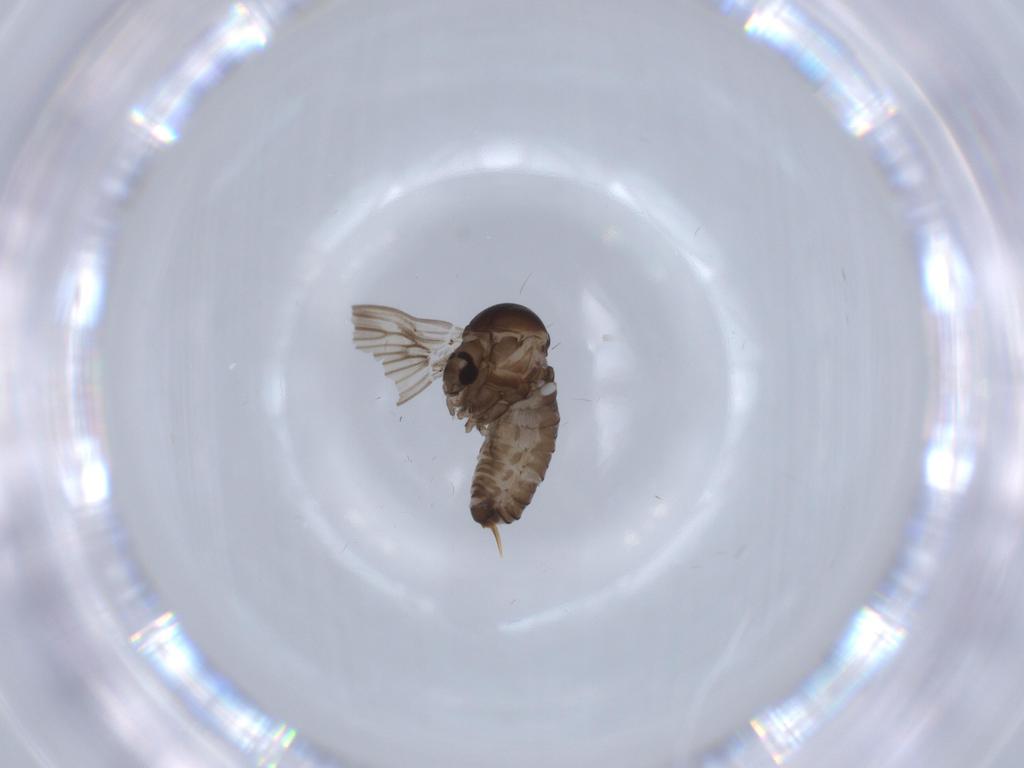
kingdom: Animalia
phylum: Arthropoda
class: Insecta
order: Diptera
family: Psychodidae
